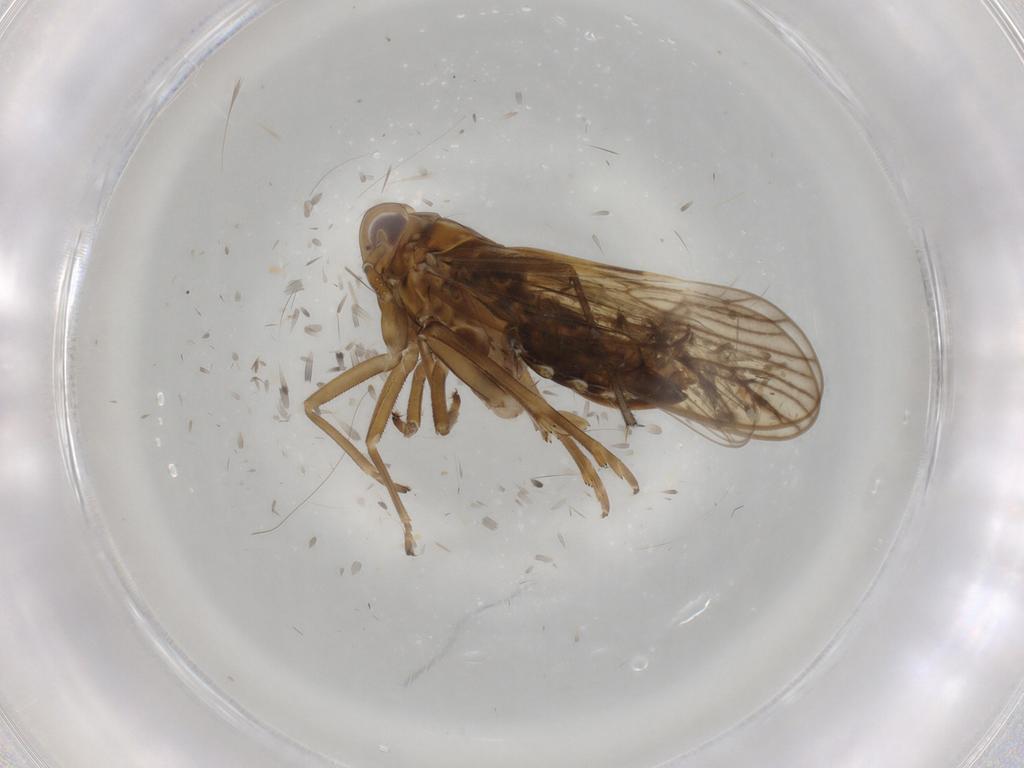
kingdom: Animalia
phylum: Arthropoda
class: Insecta
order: Hemiptera
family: Delphacidae
